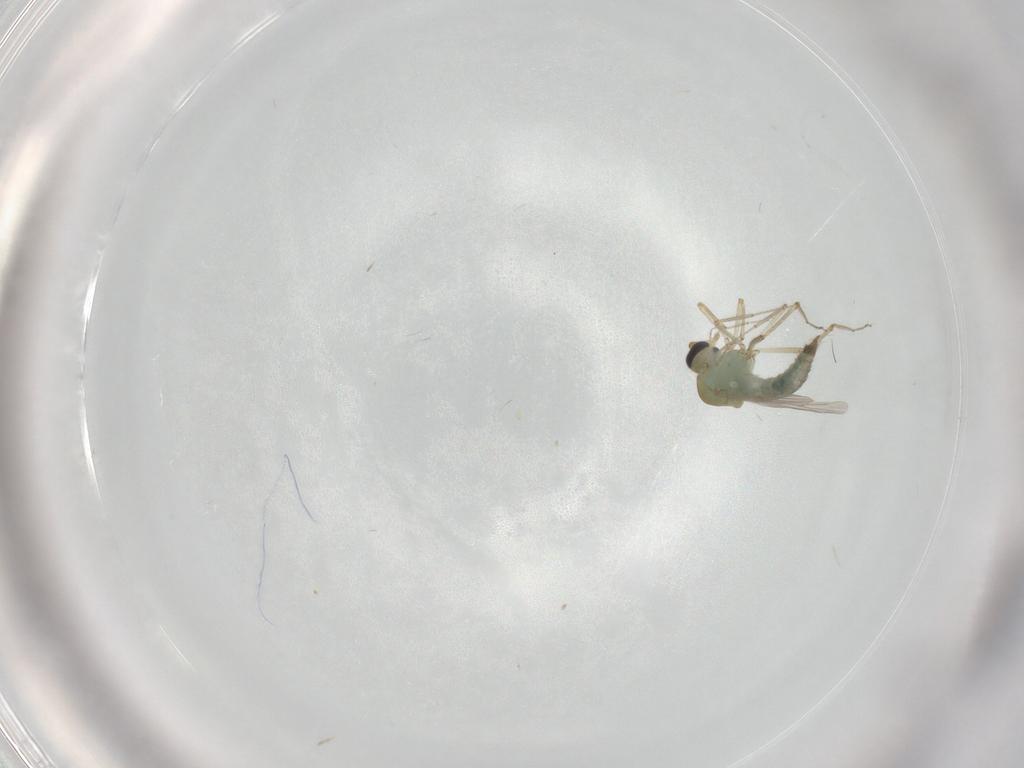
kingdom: Animalia
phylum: Arthropoda
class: Insecta
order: Diptera
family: Ceratopogonidae
